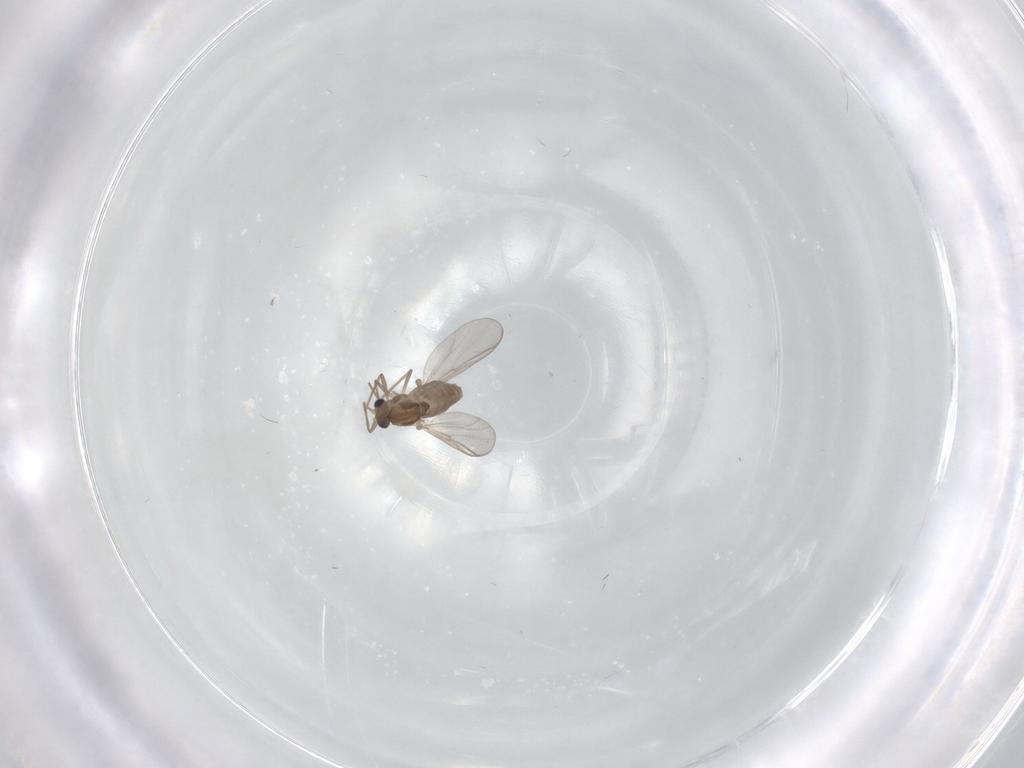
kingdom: Animalia
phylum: Arthropoda
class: Insecta
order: Diptera
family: Chironomidae
